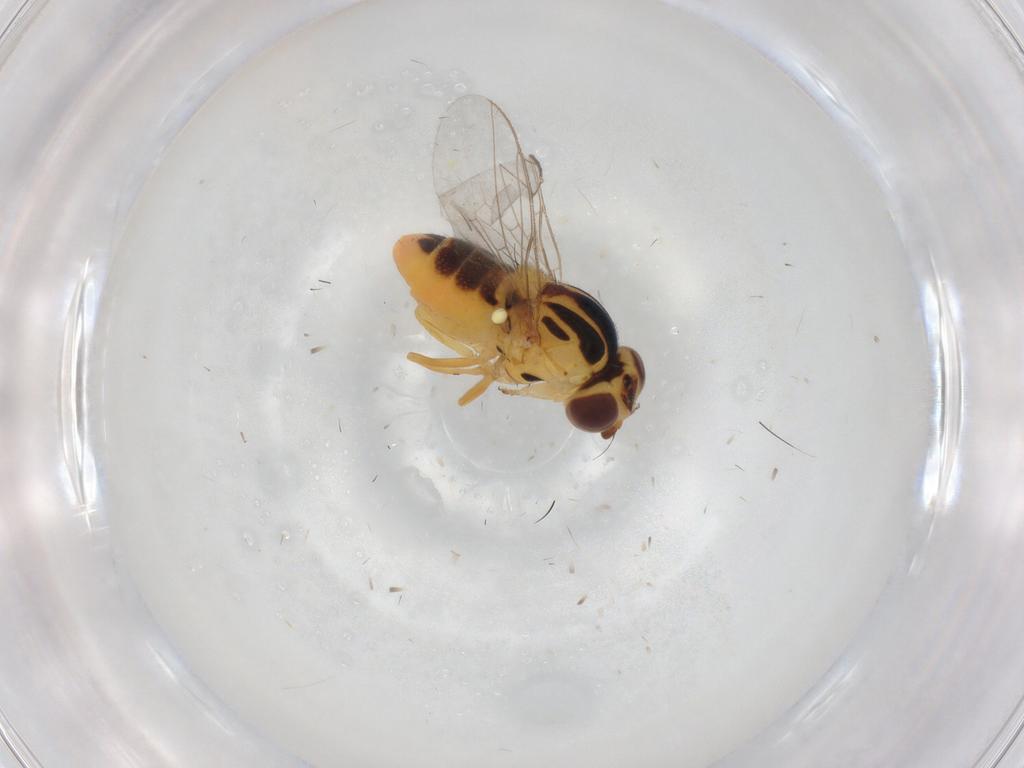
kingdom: Animalia
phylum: Arthropoda
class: Insecta
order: Diptera
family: Chloropidae
